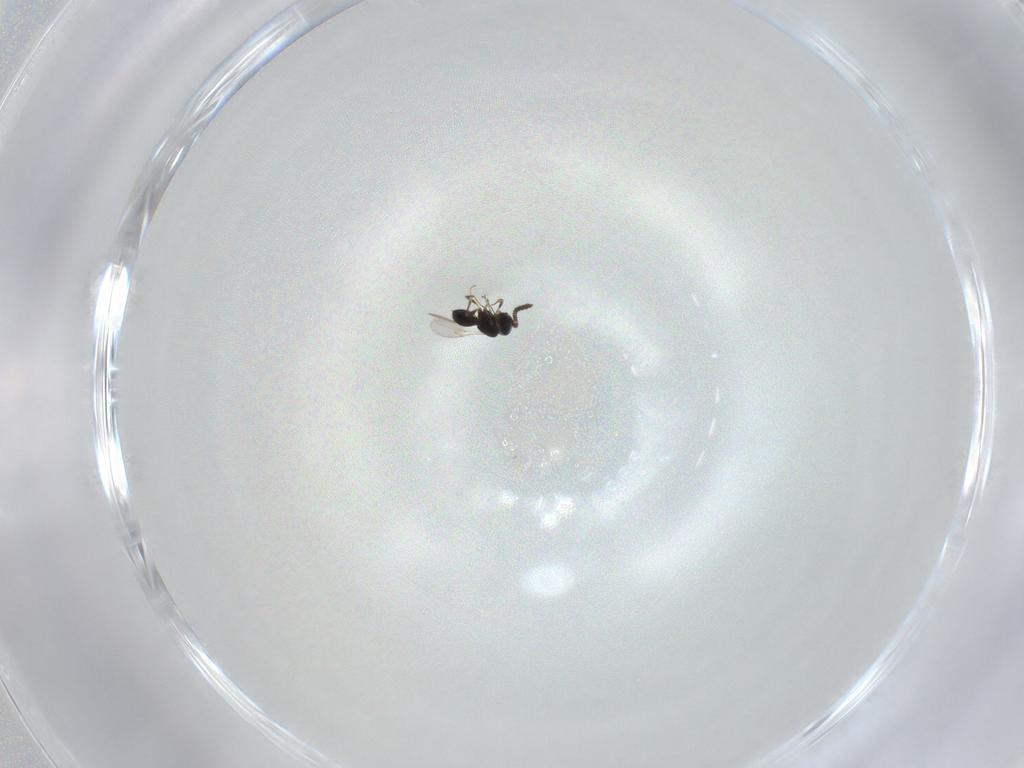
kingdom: Animalia
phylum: Arthropoda
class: Insecta
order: Hymenoptera
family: Scelionidae
